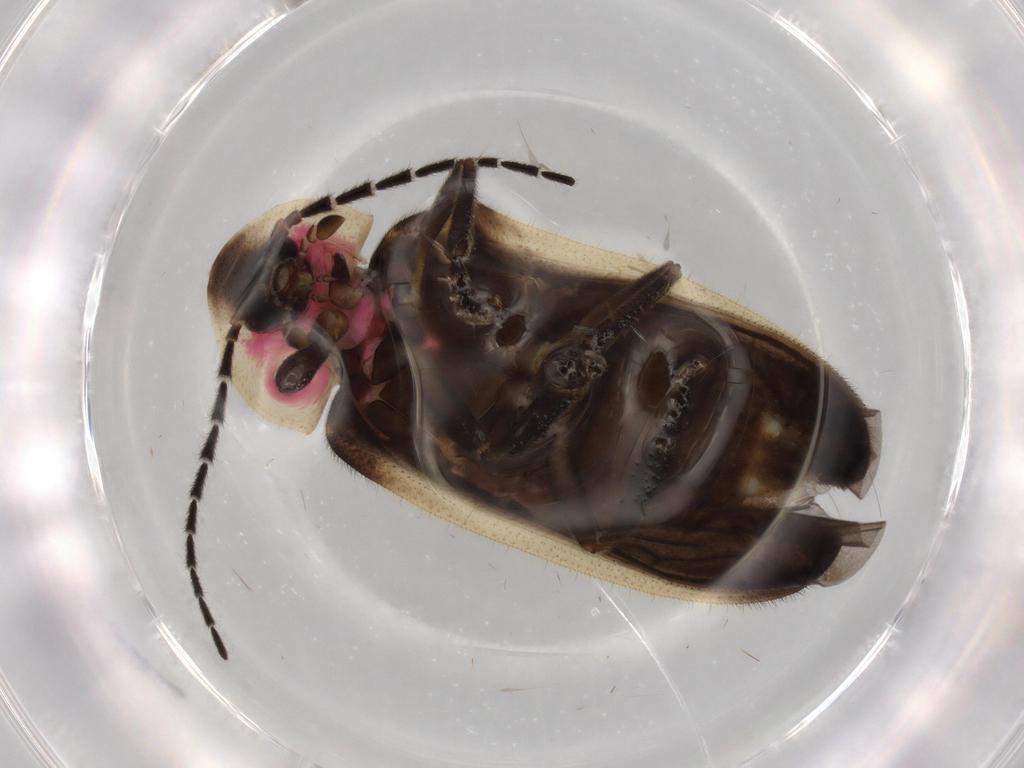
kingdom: Animalia
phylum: Arthropoda
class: Insecta
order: Coleoptera
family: Lampyridae
